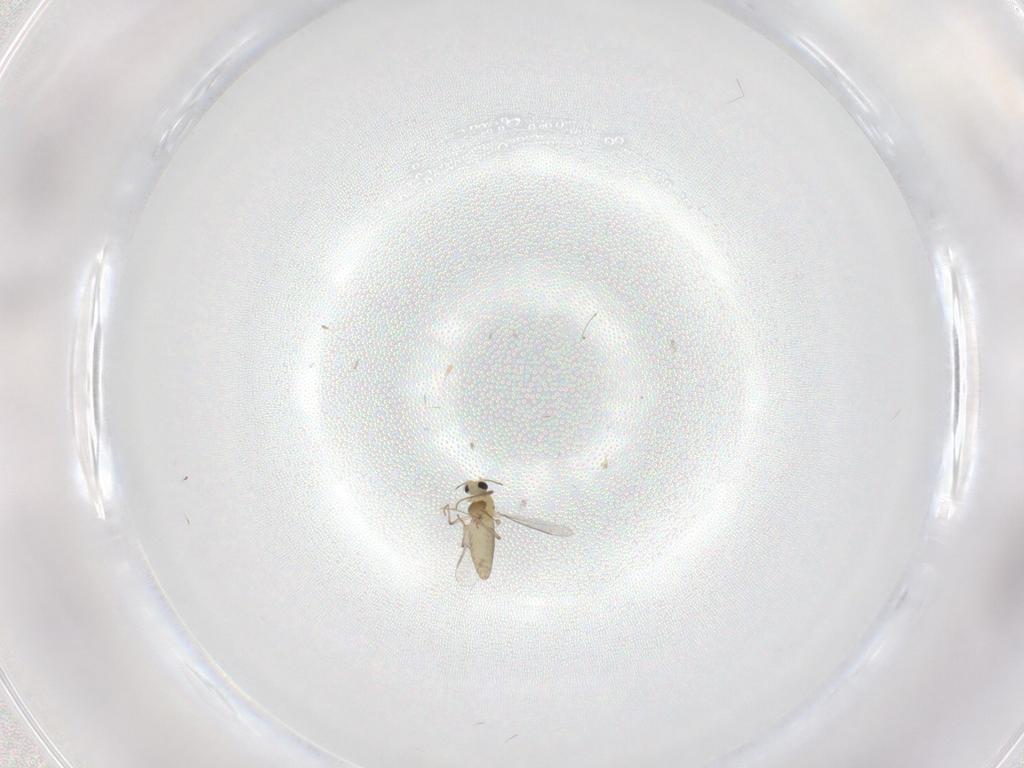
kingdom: Animalia
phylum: Arthropoda
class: Insecta
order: Diptera
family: Chironomidae
